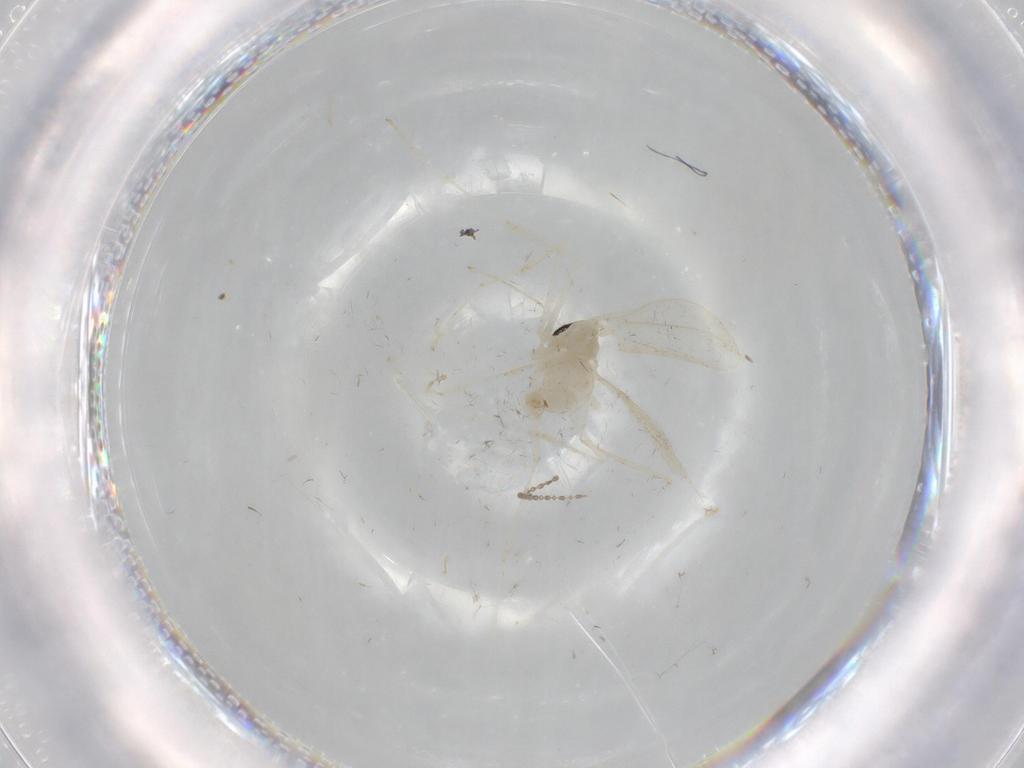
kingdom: Animalia
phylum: Arthropoda
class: Insecta
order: Diptera
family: Cecidomyiidae
